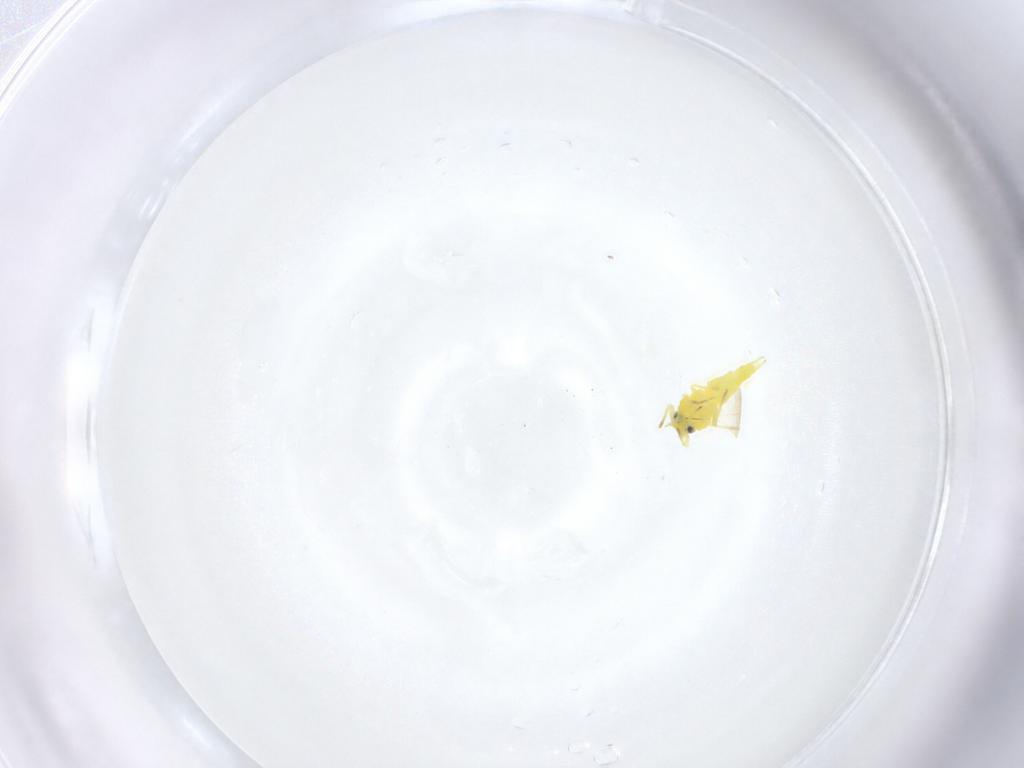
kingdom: Animalia
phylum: Arthropoda
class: Insecta
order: Hemiptera
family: Aleyrodidae
